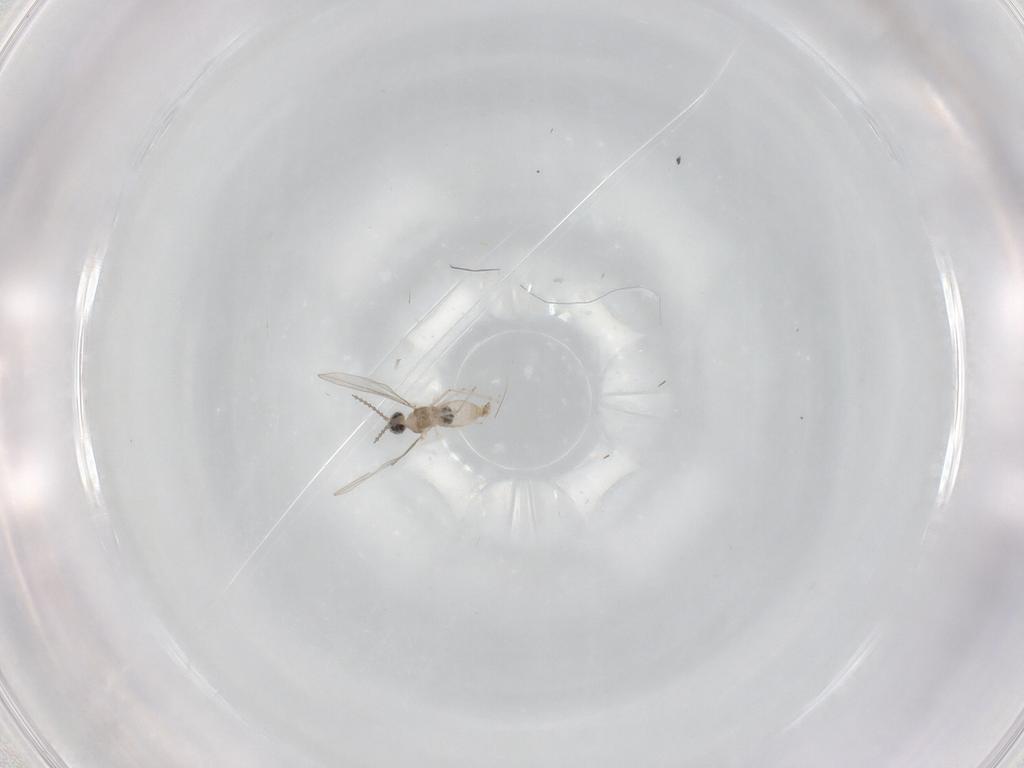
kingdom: Animalia
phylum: Arthropoda
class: Insecta
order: Diptera
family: Cecidomyiidae
